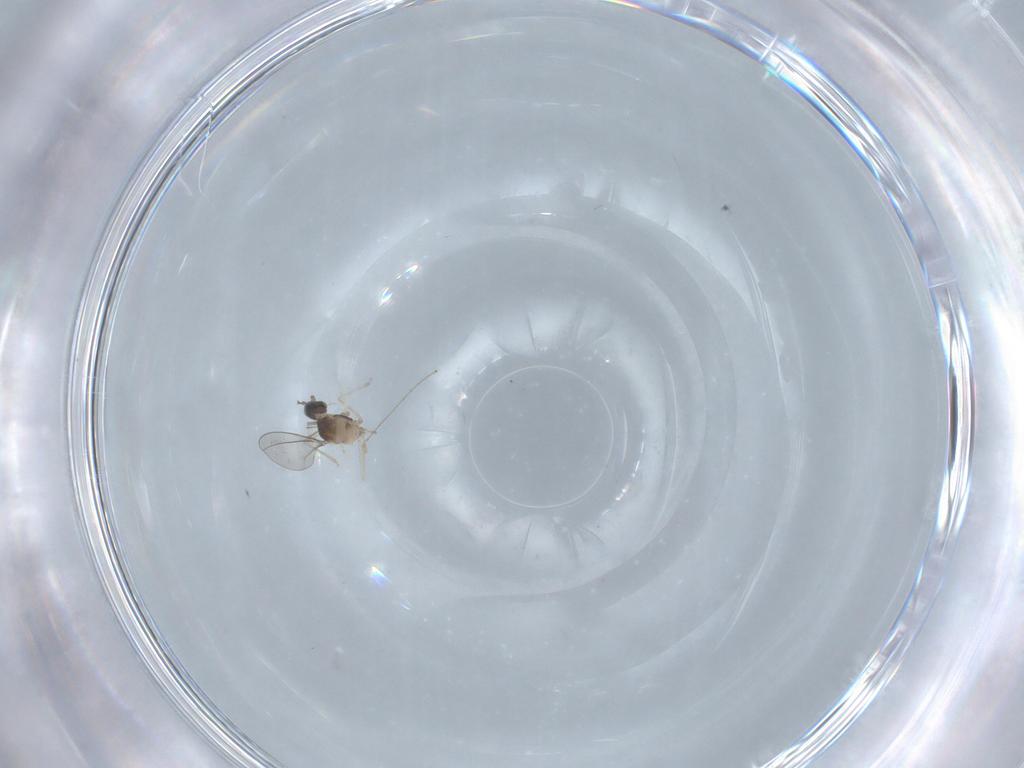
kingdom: Animalia
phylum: Arthropoda
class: Insecta
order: Diptera
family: Cecidomyiidae
